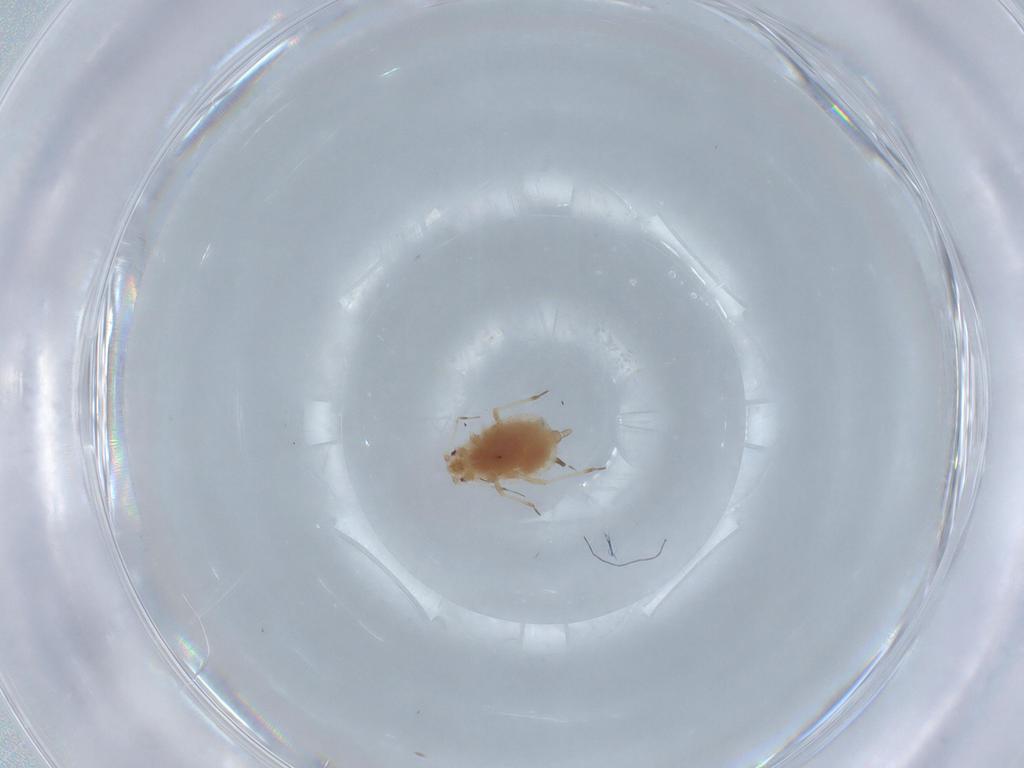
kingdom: Animalia
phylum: Arthropoda
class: Insecta
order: Hemiptera
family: Aphididae
